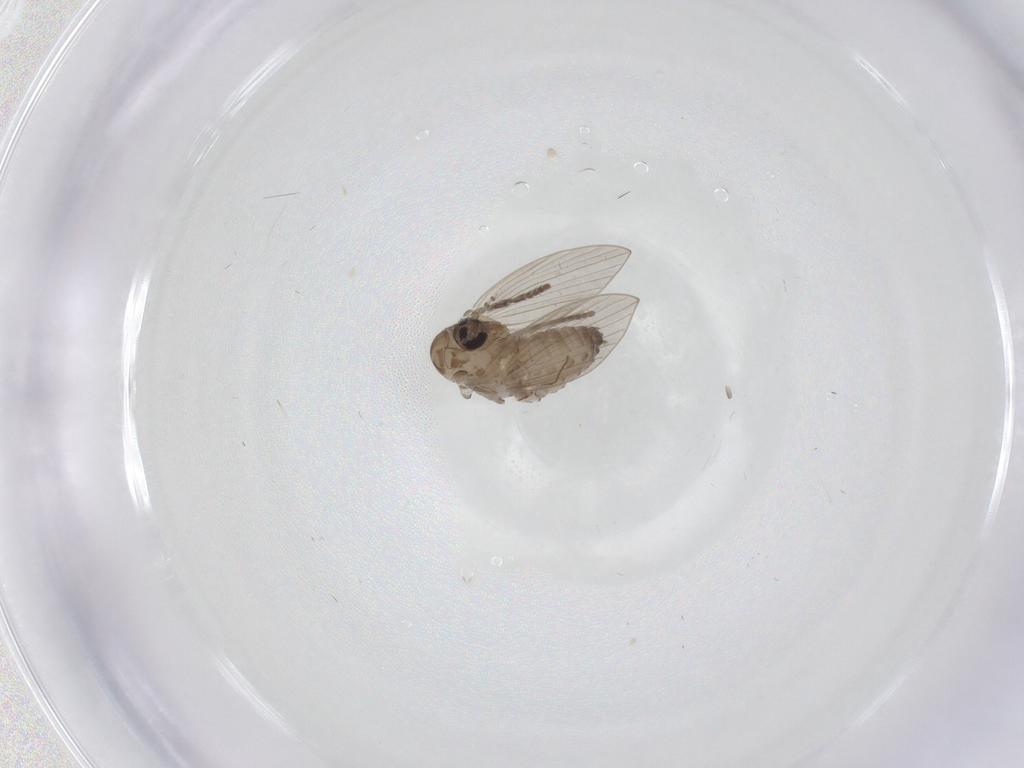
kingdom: Animalia
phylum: Arthropoda
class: Insecta
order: Diptera
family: Psychodidae
